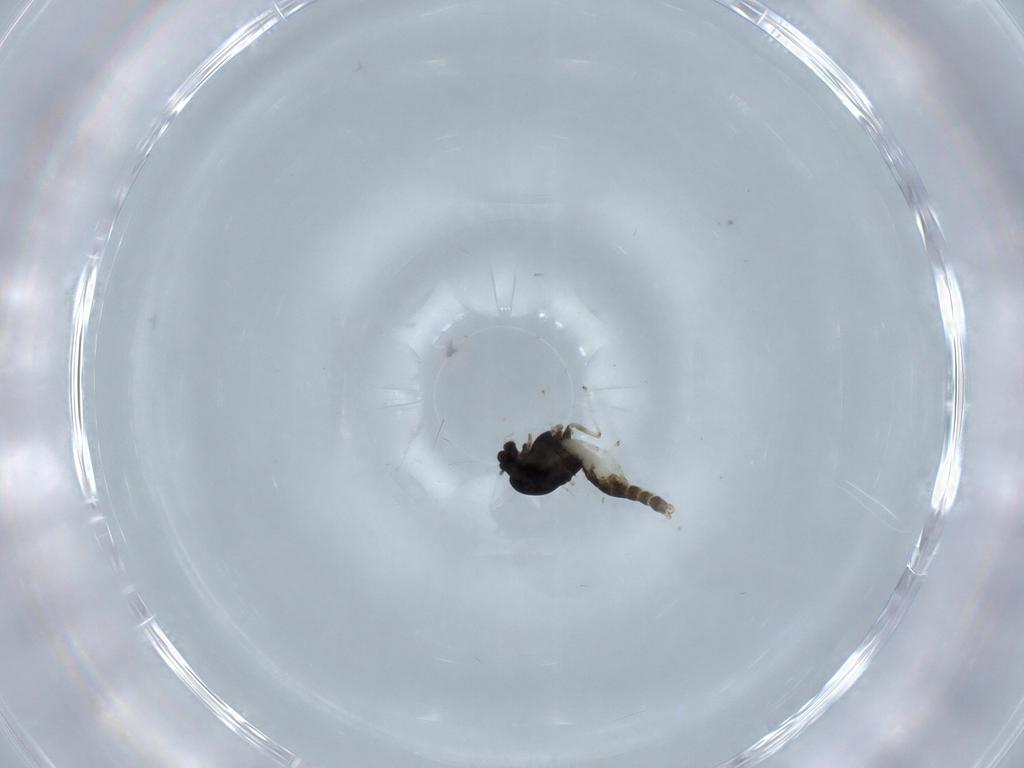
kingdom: Animalia
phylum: Arthropoda
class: Insecta
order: Diptera
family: Chironomidae
